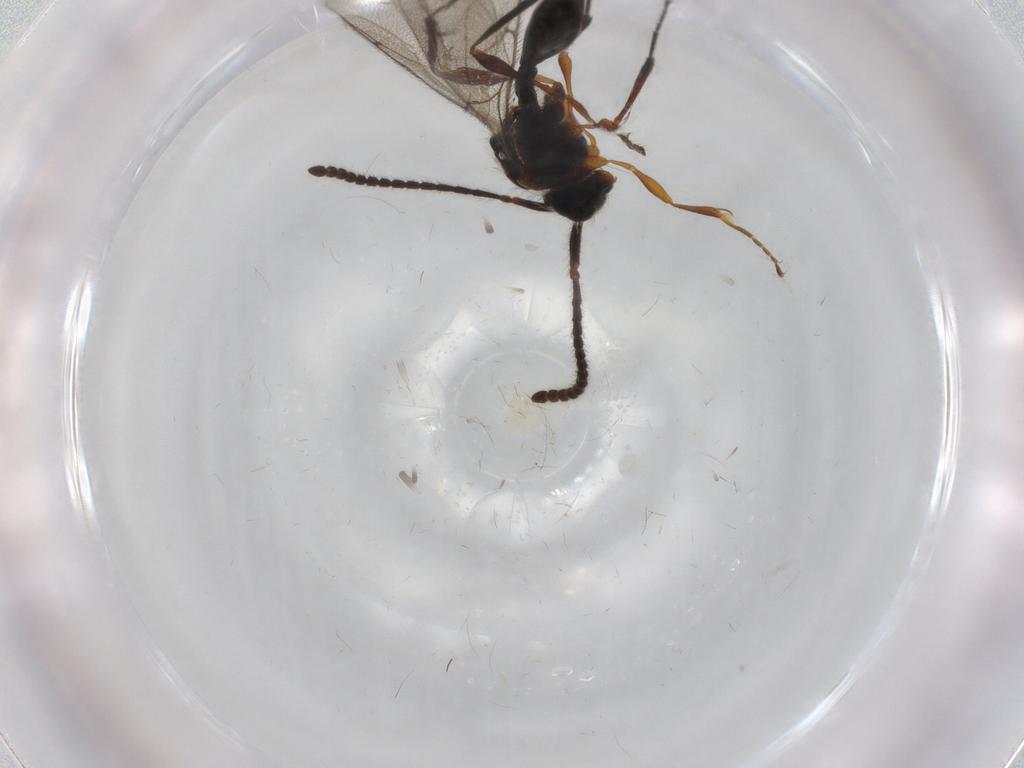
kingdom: Animalia
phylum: Arthropoda
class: Insecta
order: Hymenoptera
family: Diapriidae
